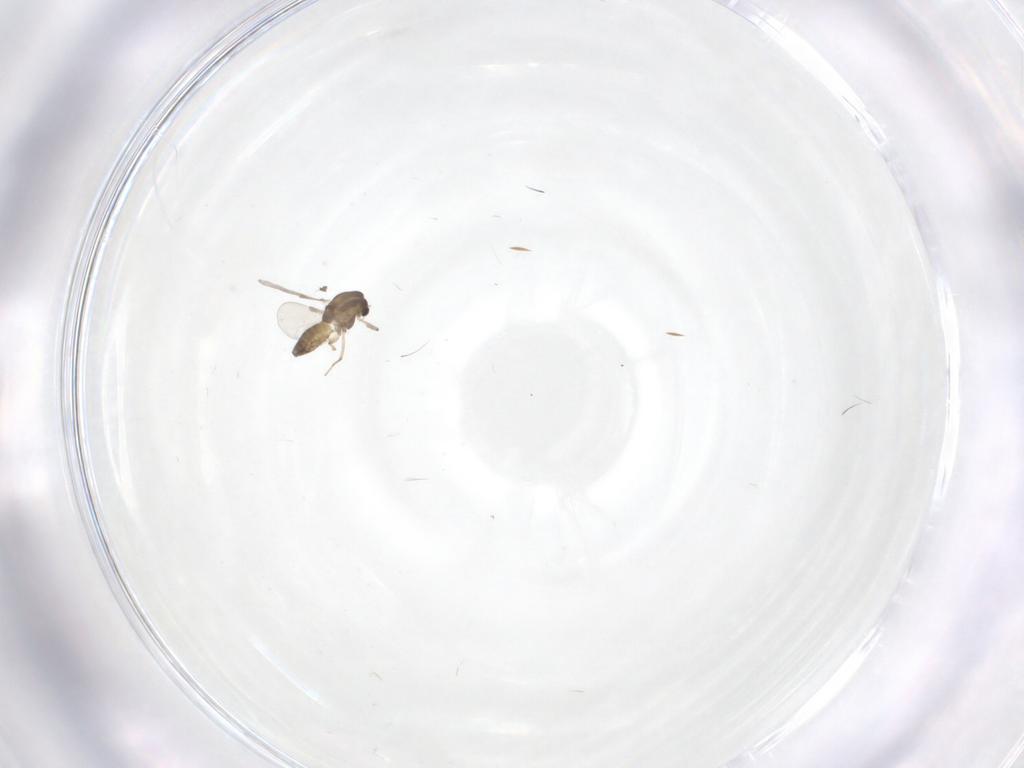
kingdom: Animalia
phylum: Arthropoda
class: Insecta
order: Diptera
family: Chironomidae
